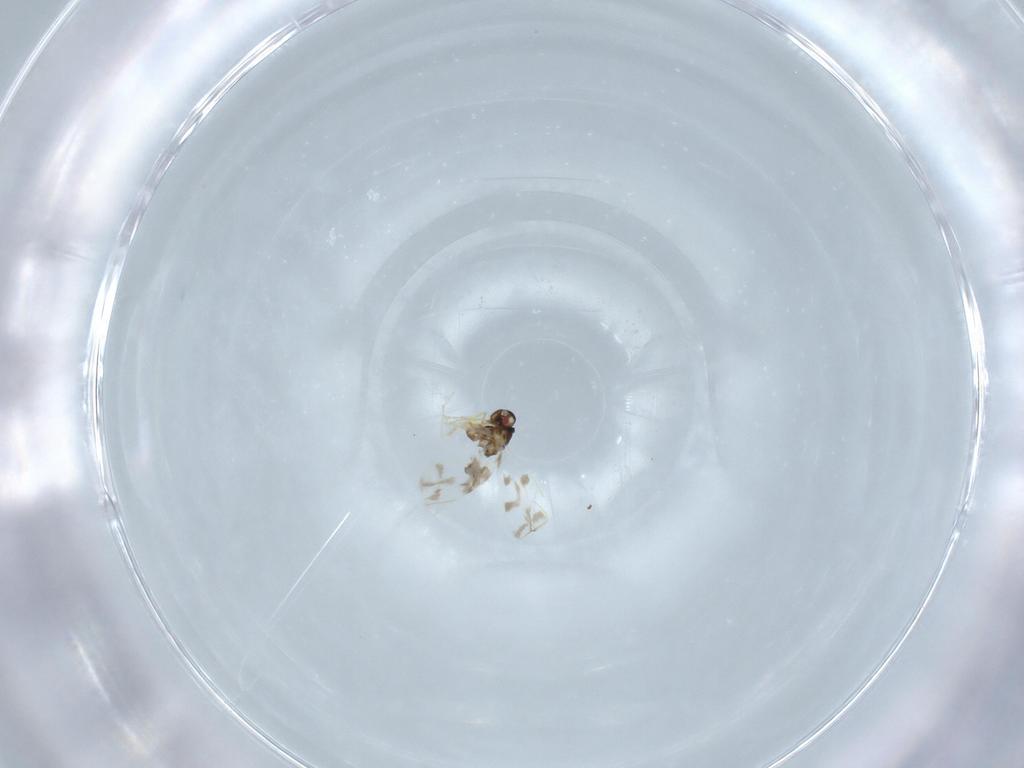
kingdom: Animalia
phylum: Arthropoda
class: Insecta
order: Hemiptera
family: Aleyrodidae
